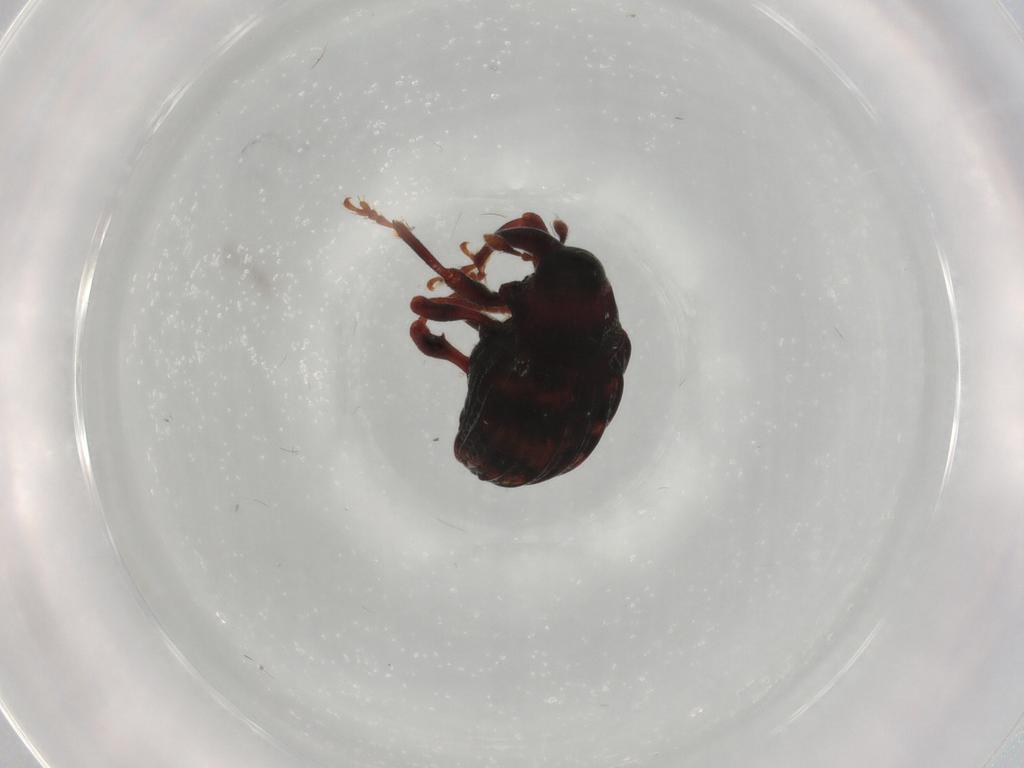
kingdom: Animalia
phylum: Arthropoda
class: Insecta
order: Coleoptera
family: Curculionidae
